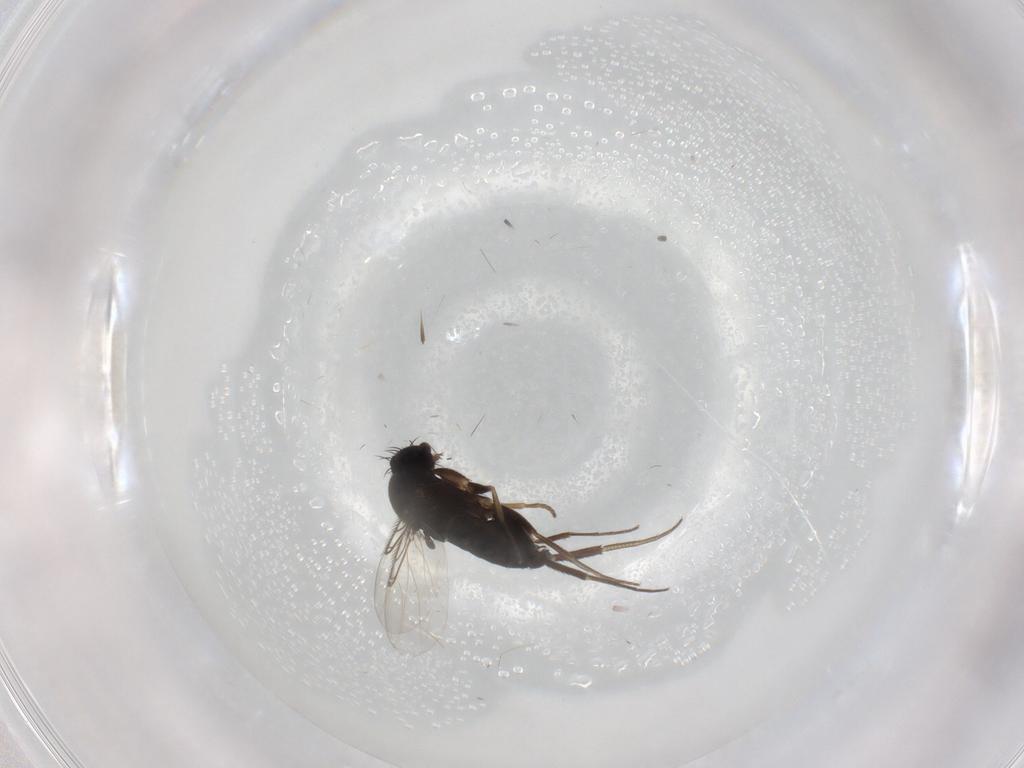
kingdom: Animalia
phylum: Arthropoda
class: Insecta
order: Diptera
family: Phoridae
